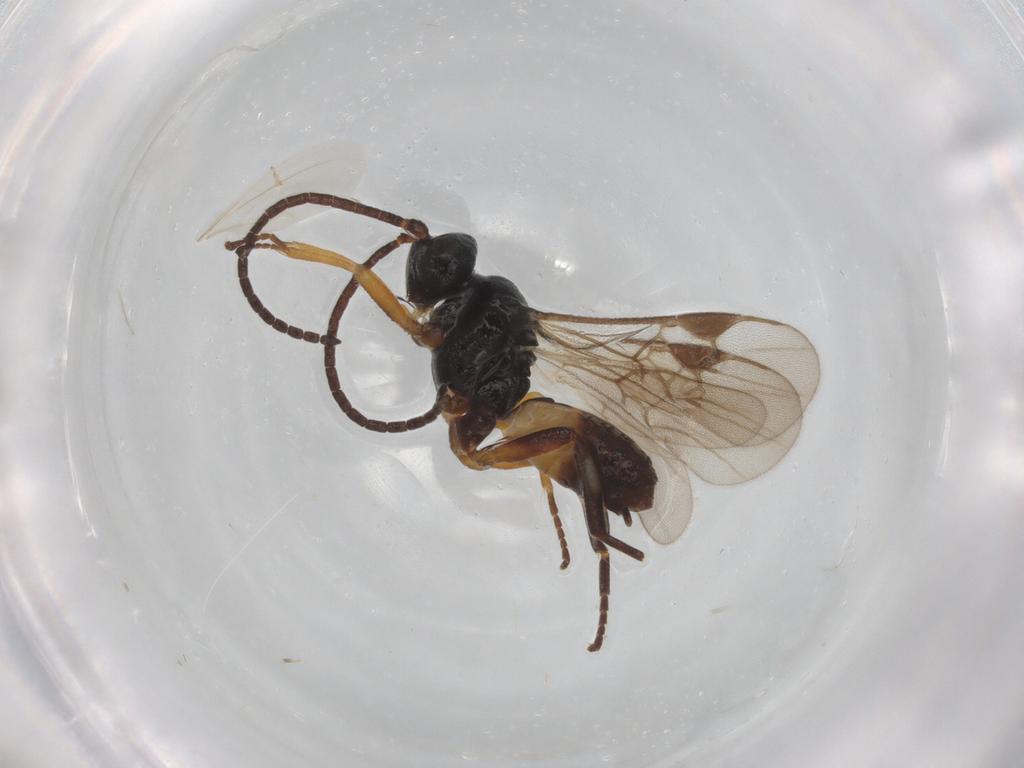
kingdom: Animalia
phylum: Arthropoda
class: Insecta
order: Hymenoptera
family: Braconidae
